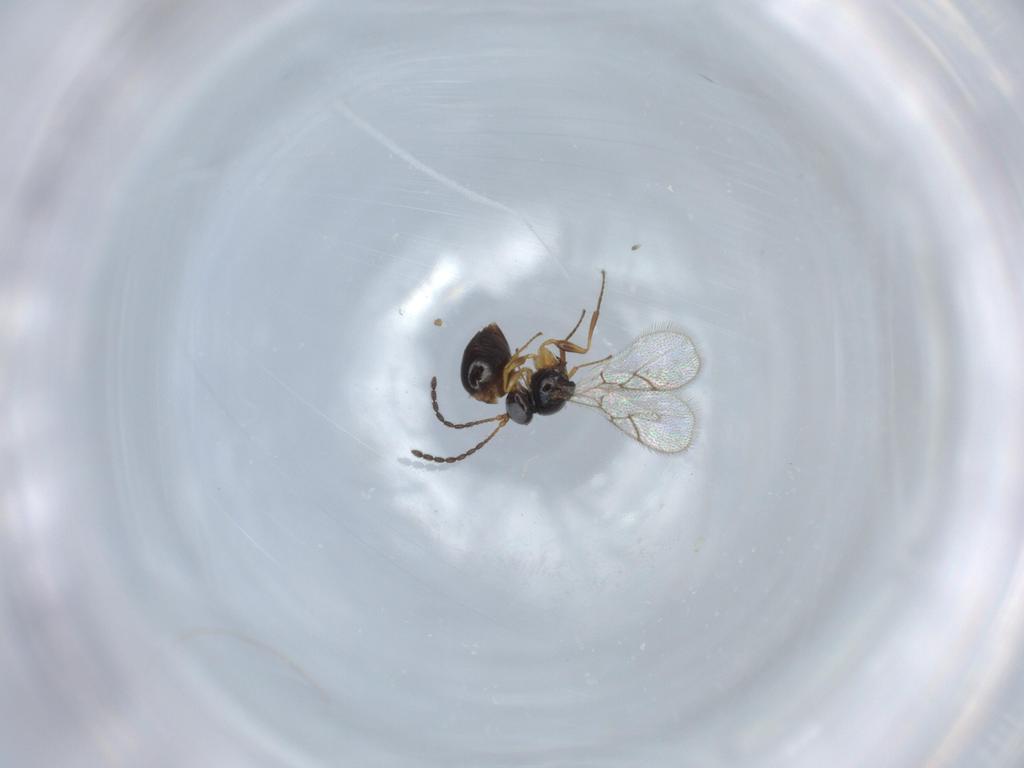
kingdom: Animalia
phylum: Arthropoda
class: Insecta
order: Hymenoptera
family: Figitidae
